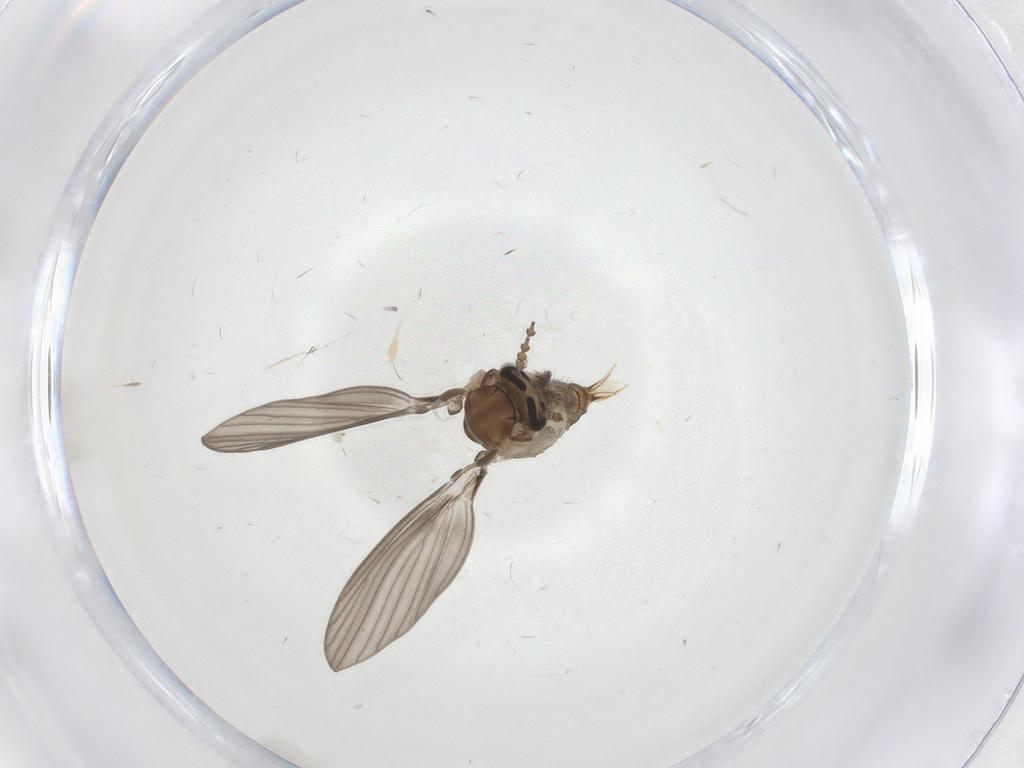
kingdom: Animalia
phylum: Arthropoda
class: Insecta
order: Diptera
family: Psychodidae
